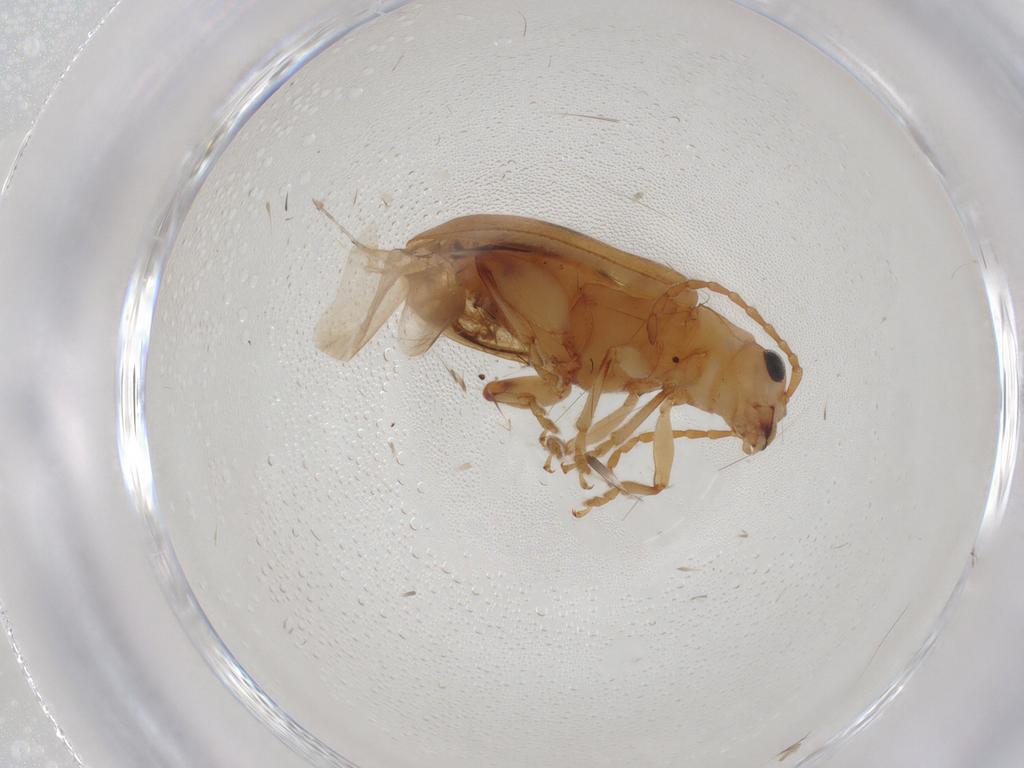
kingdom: Animalia
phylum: Arthropoda
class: Insecta
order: Coleoptera
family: Chrysomelidae
